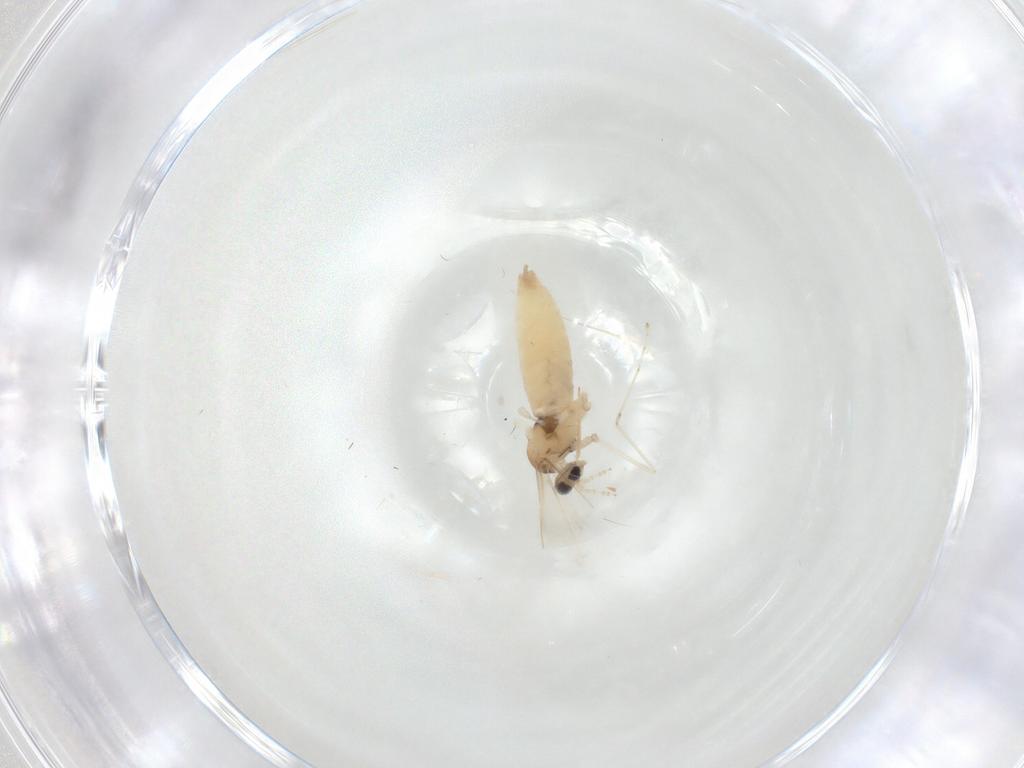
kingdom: Animalia
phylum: Arthropoda
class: Insecta
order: Diptera
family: Cecidomyiidae
